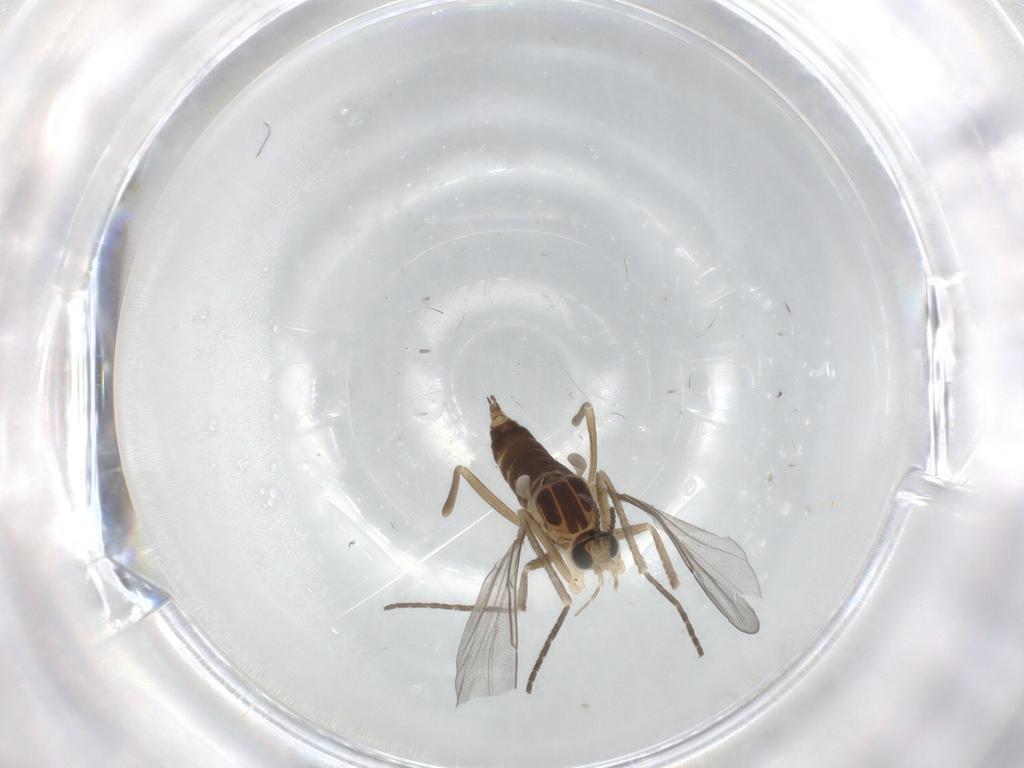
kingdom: Animalia
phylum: Arthropoda
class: Insecta
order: Diptera
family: Cecidomyiidae
